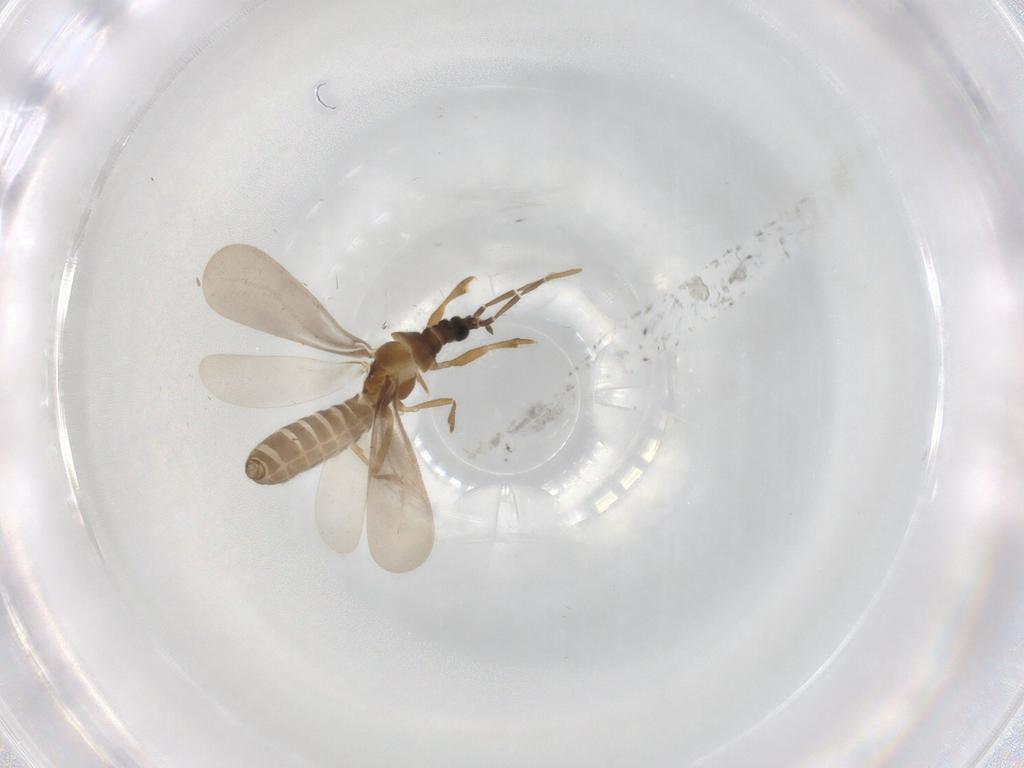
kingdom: Animalia
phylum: Arthropoda
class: Insecta
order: Hemiptera
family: Enicocephalidae
